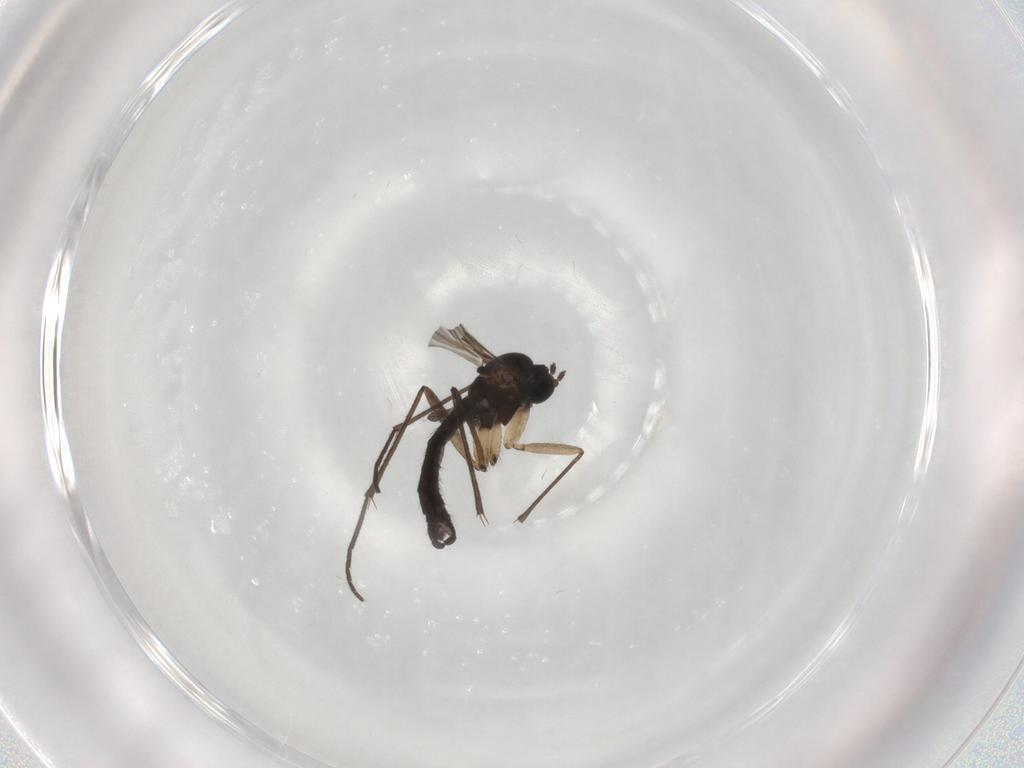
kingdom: Animalia
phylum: Arthropoda
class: Insecta
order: Diptera
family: Sciaridae
